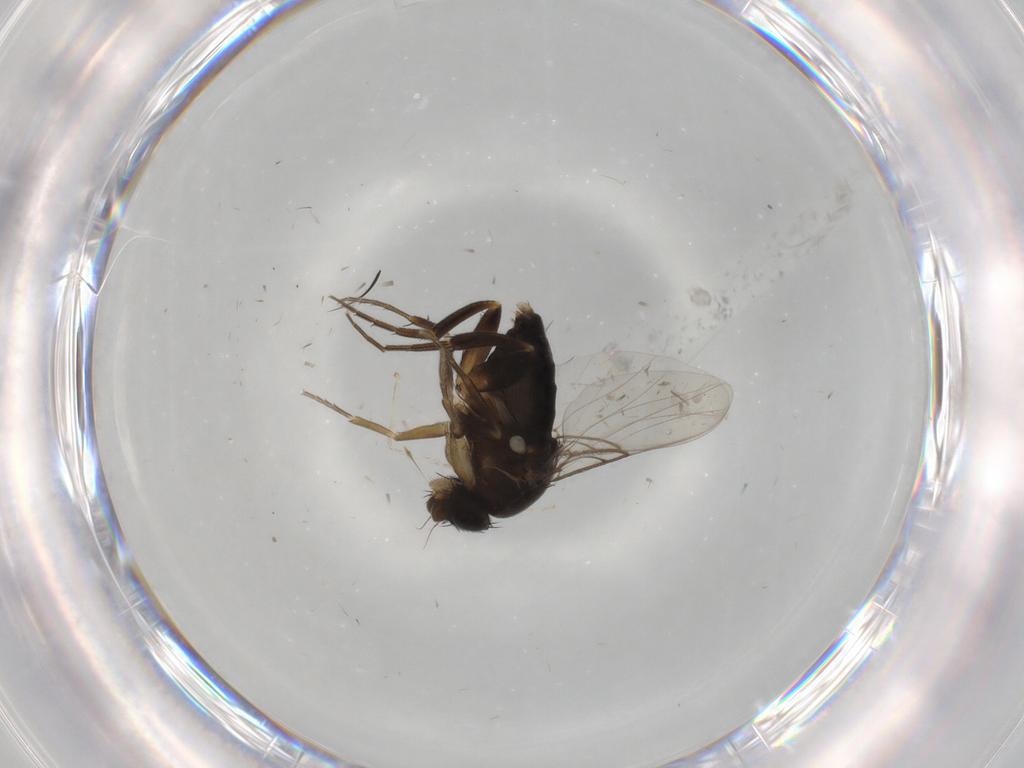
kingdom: Animalia
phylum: Arthropoda
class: Insecta
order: Diptera
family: Phoridae
